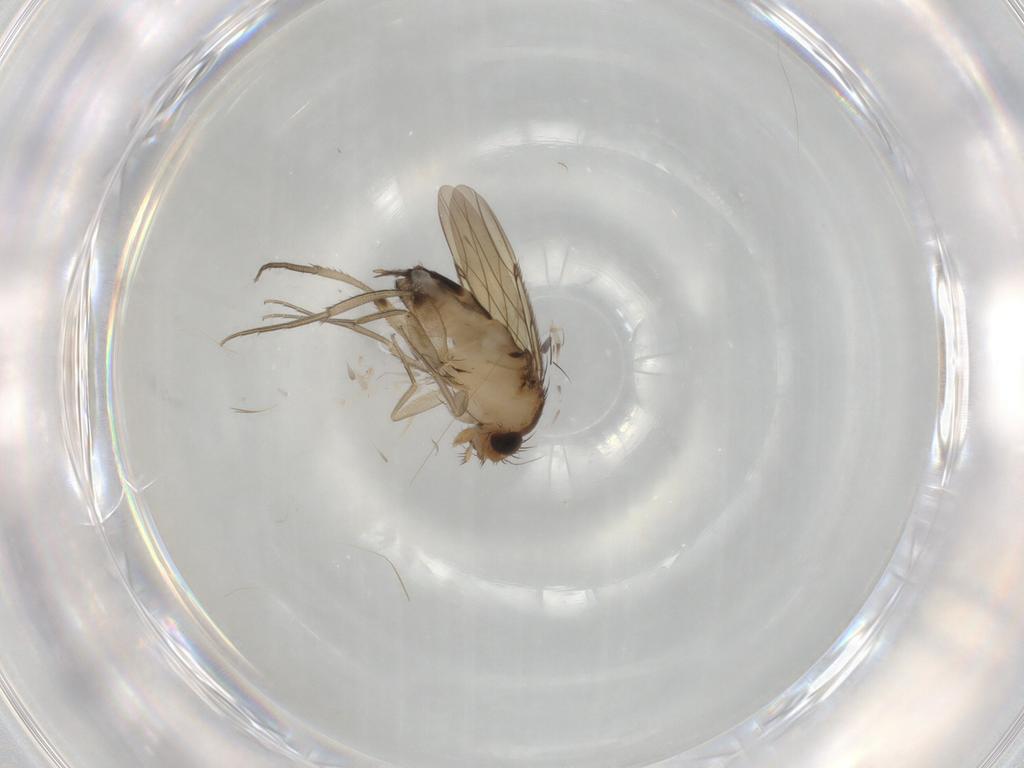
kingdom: Animalia
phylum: Arthropoda
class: Insecta
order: Diptera
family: Phoridae
